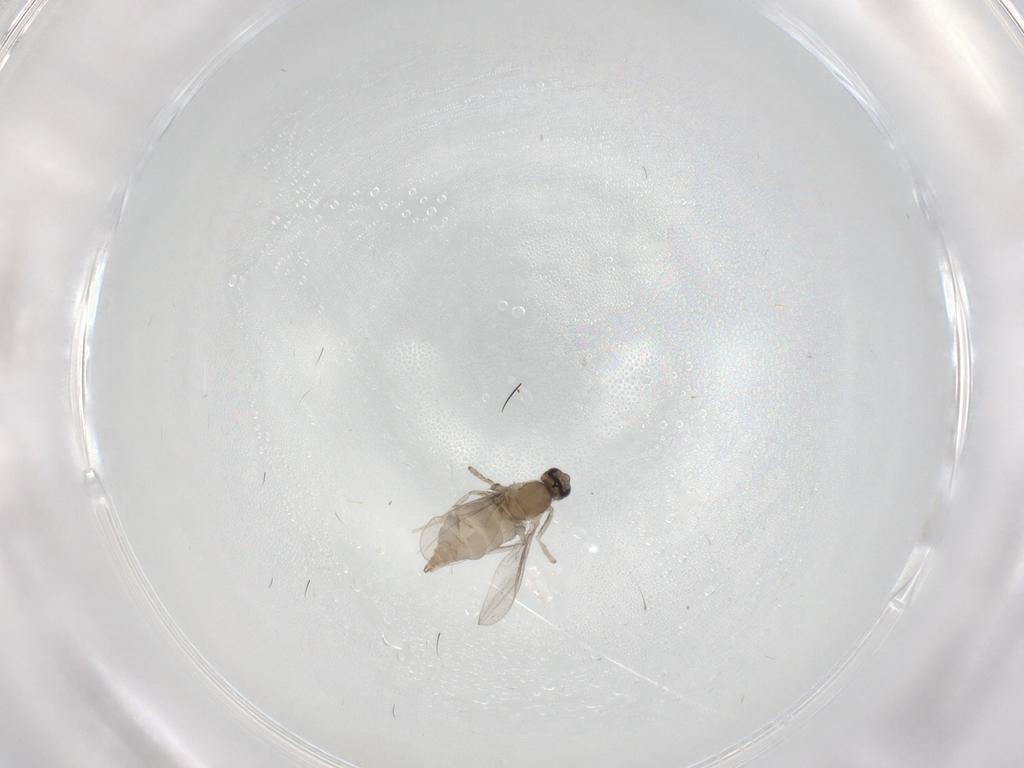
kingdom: Animalia
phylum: Arthropoda
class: Insecta
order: Diptera
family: Cecidomyiidae
